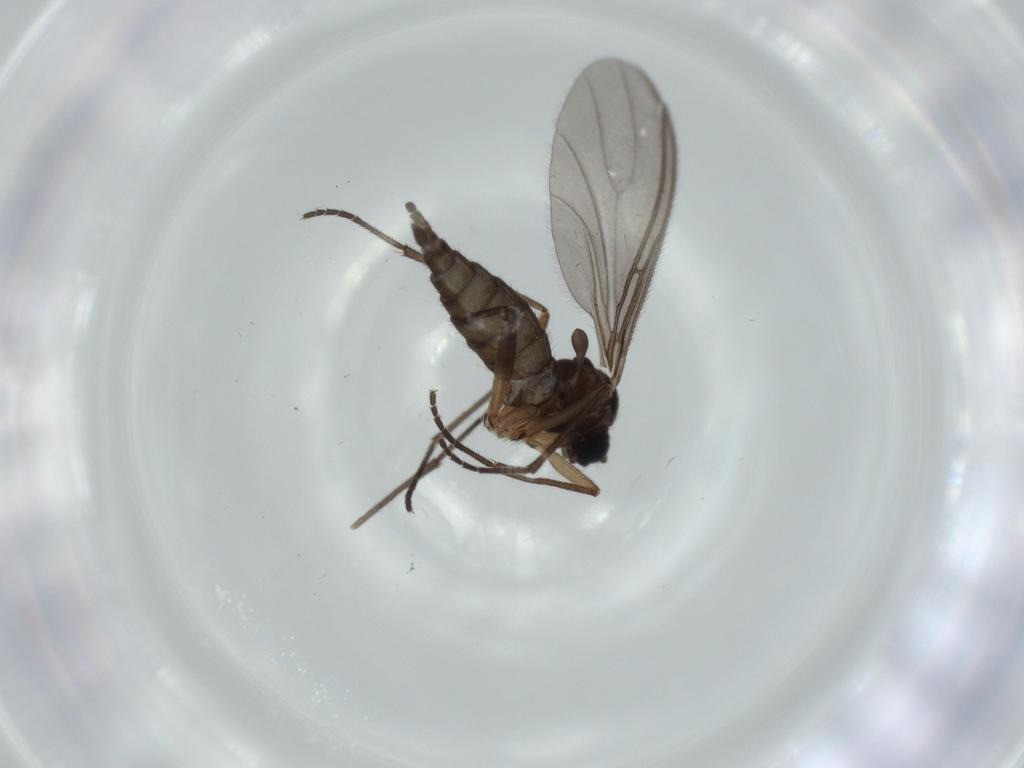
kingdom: Animalia
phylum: Arthropoda
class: Insecta
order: Diptera
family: Sciaridae
